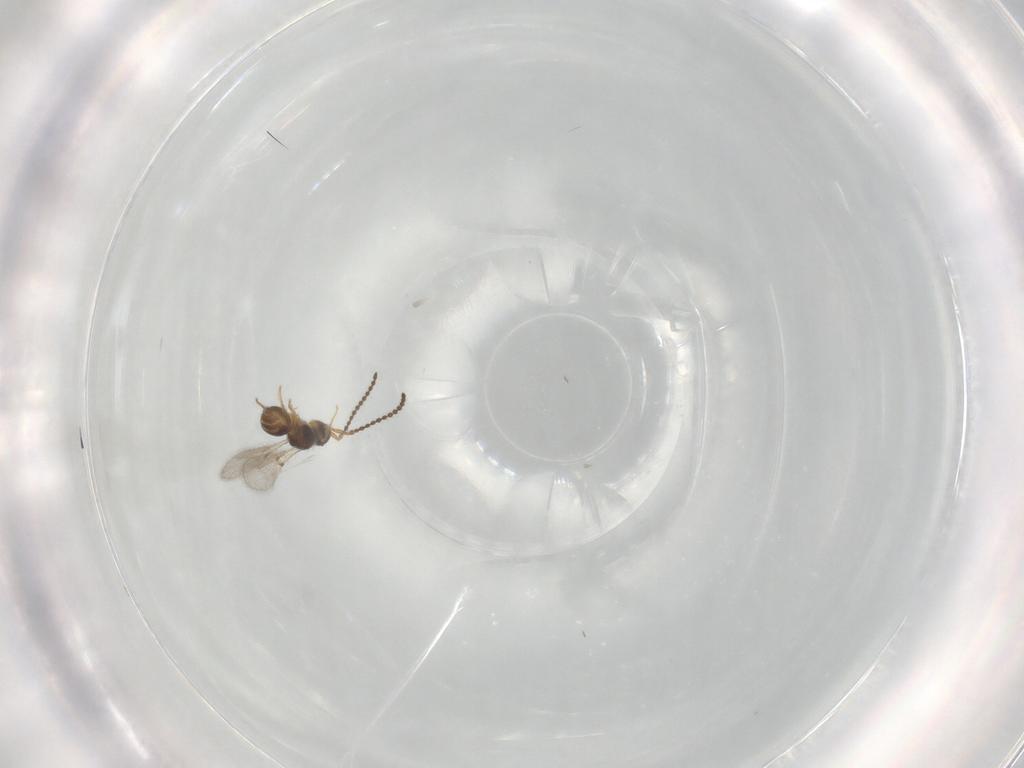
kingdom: Animalia
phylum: Arthropoda
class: Insecta
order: Hymenoptera
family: Diapriidae
